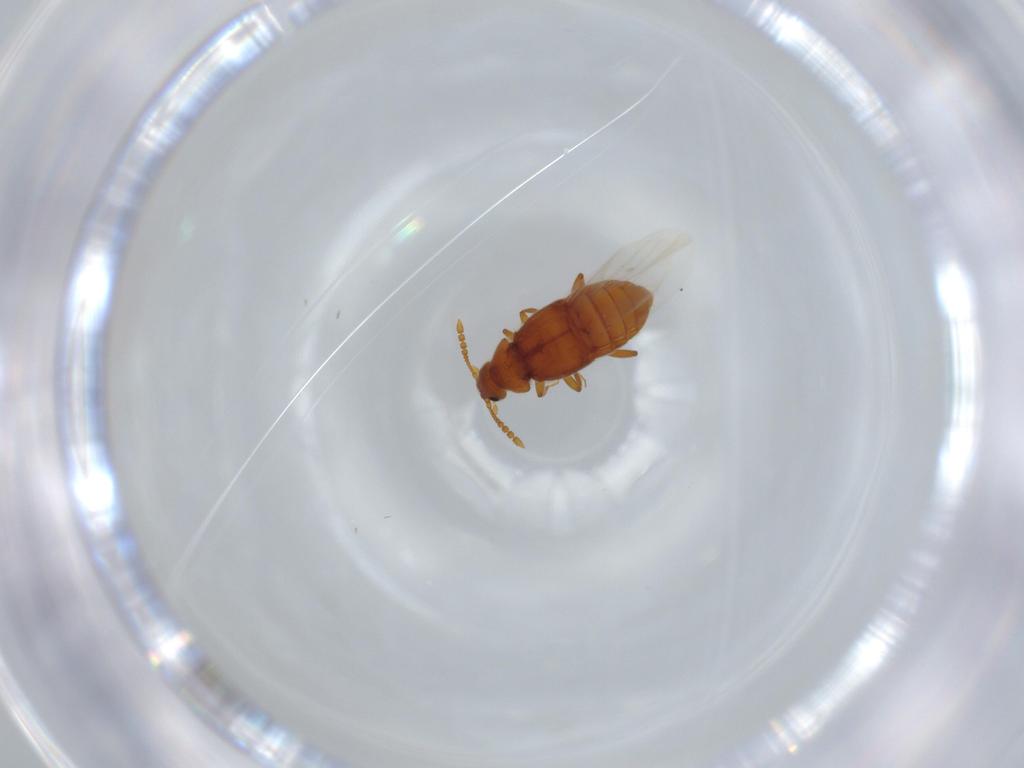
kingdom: Animalia
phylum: Arthropoda
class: Insecta
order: Coleoptera
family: Staphylinidae
